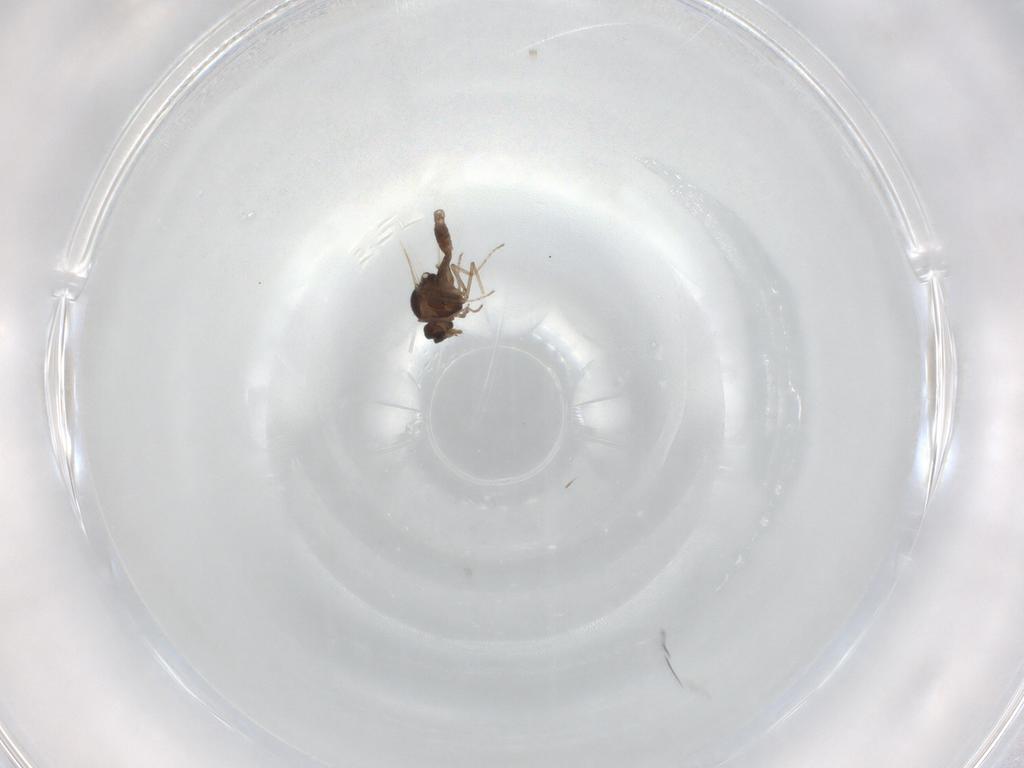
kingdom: Animalia
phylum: Arthropoda
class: Insecta
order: Diptera
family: Ceratopogonidae
